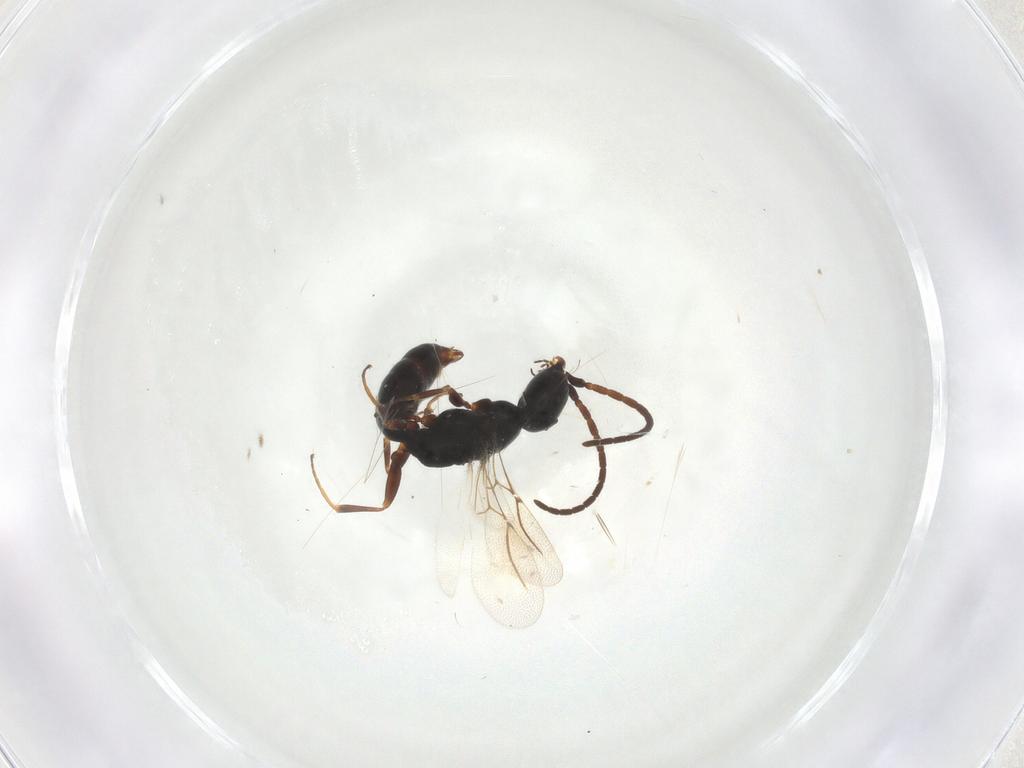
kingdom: Animalia
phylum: Arthropoda
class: Insecta
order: Hymenoptera
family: Bethylidae
